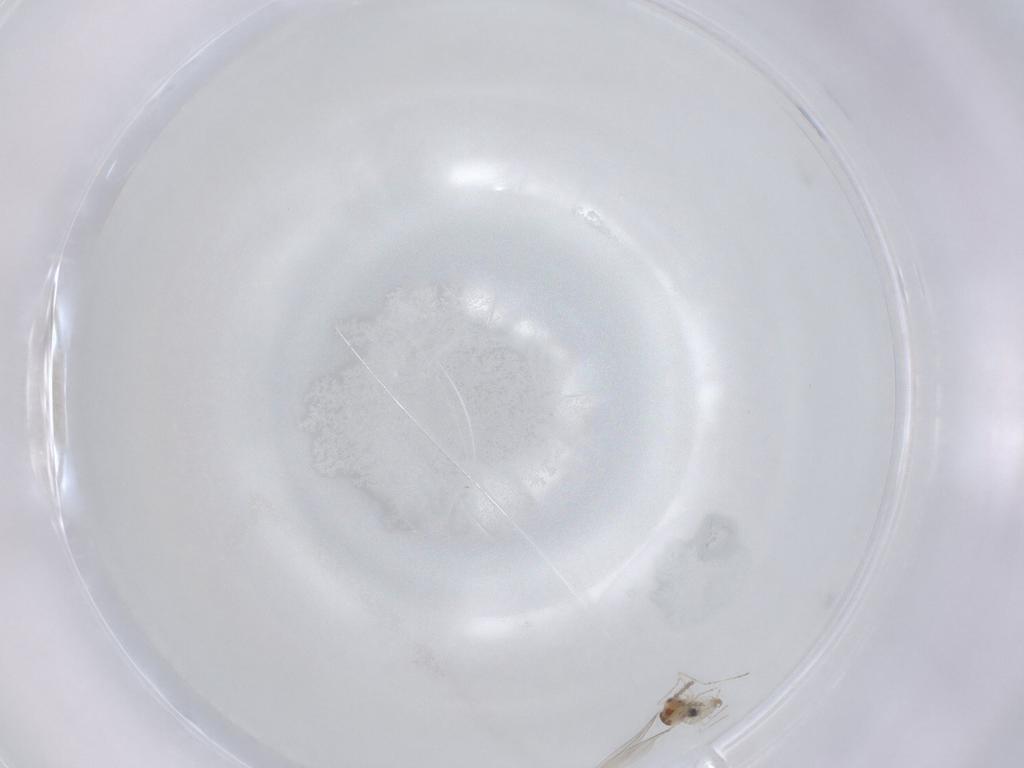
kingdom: Animalia
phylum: Arthropoda
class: Insecta
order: Diptera
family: Cecidomyiidae
